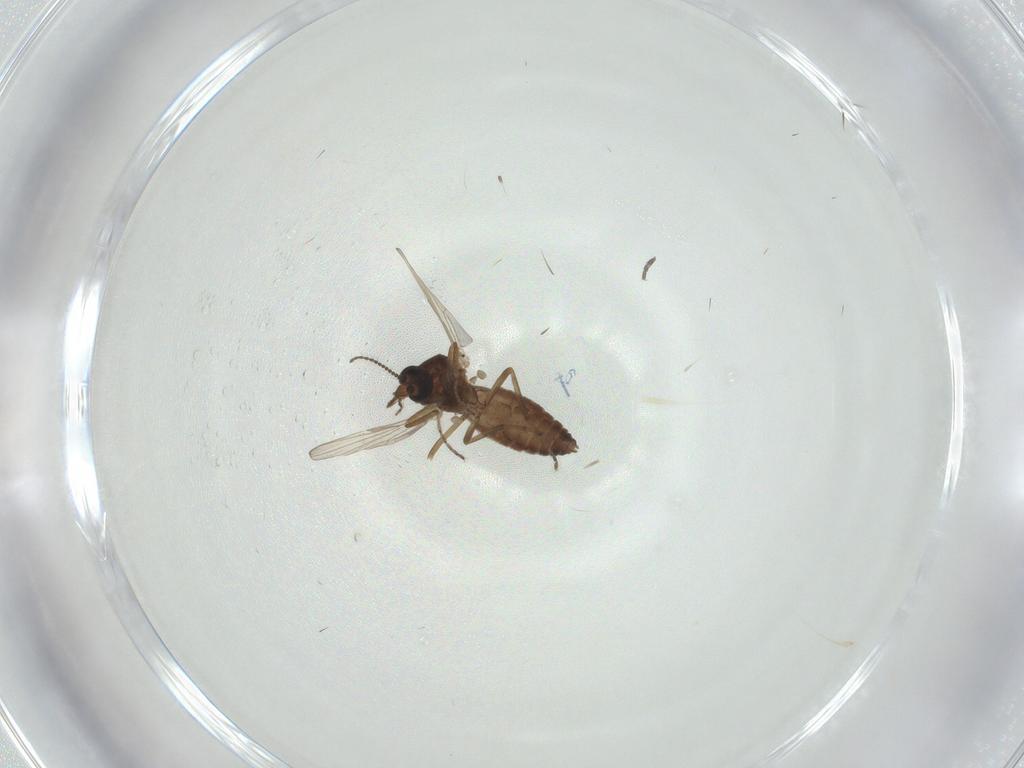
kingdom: Animalia
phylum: Arthropoda
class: Insecta
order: Diptera
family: Ceratopogonidae
